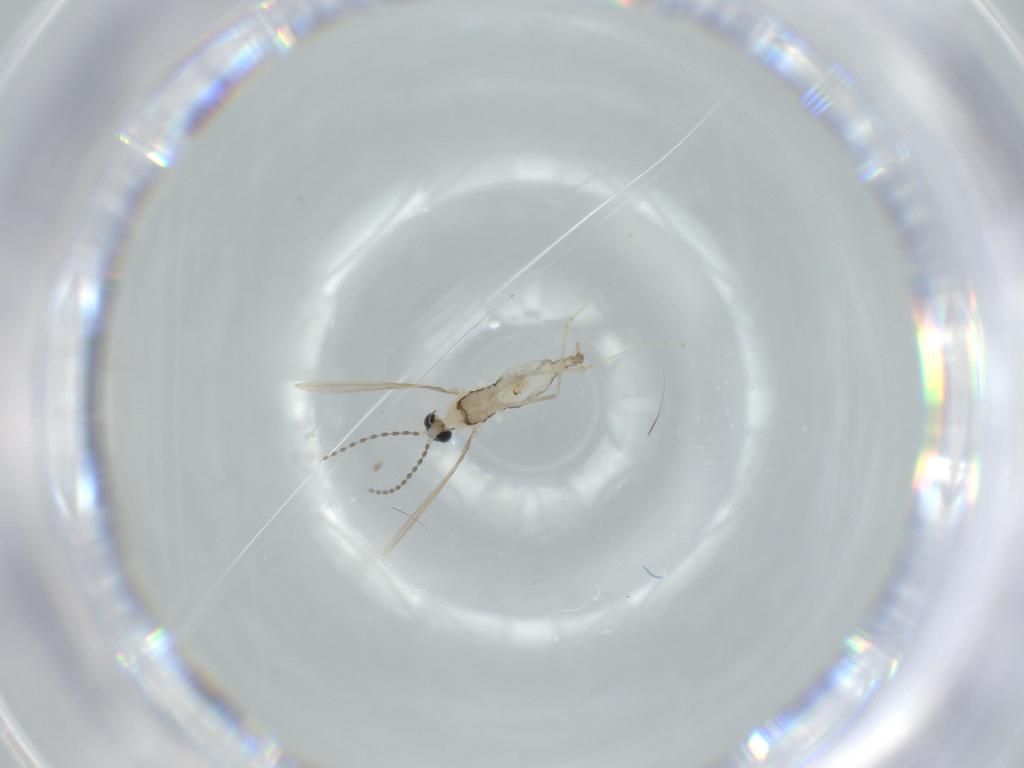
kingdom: Animalia
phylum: Arthropoda
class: Insecta
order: Diptera
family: Cecidomyiidae
